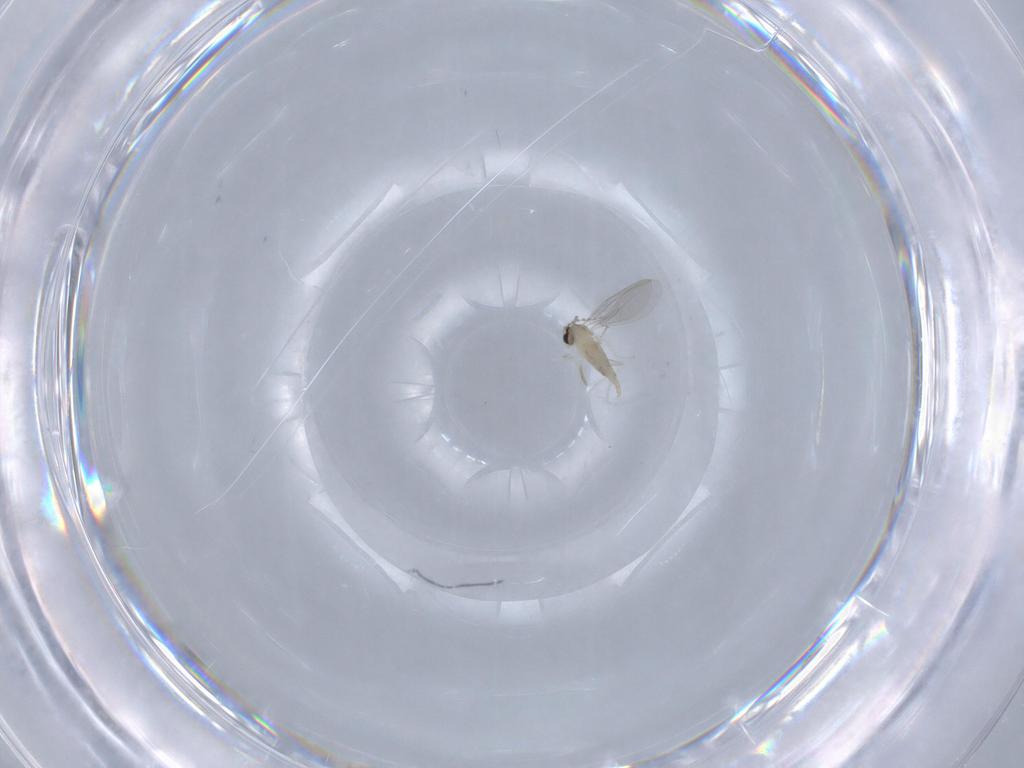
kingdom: Animalia
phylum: Arthropoda
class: Insecta
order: Diptera
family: Cecidomyiidae
